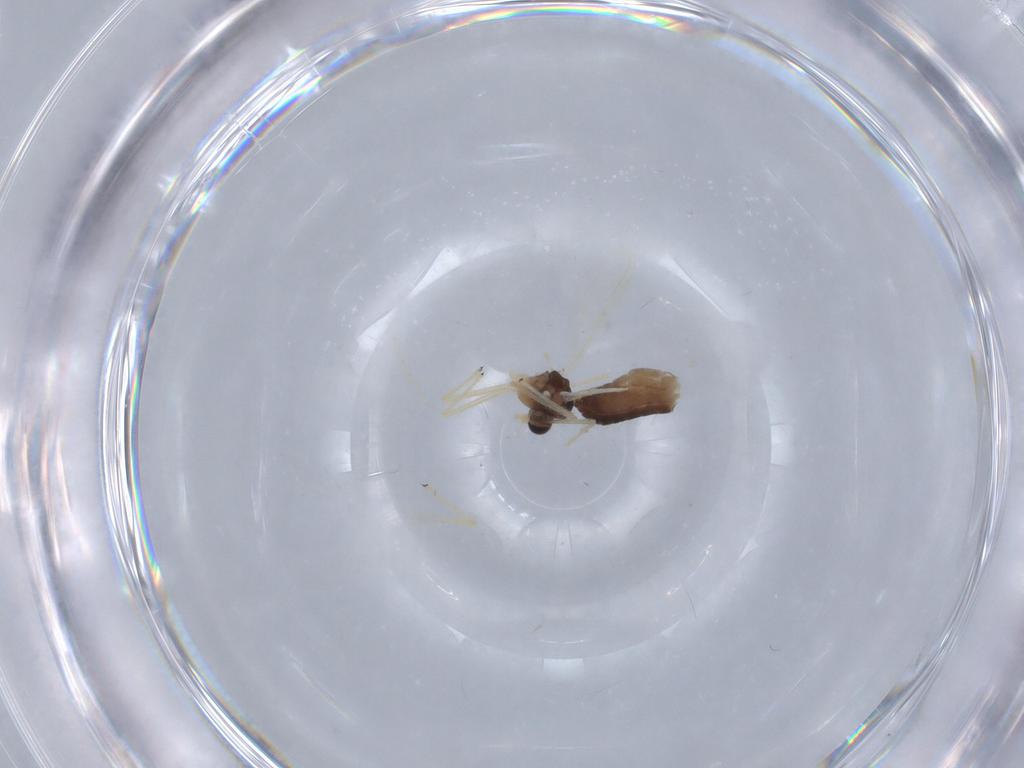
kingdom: Animalia
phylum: Arthropoda
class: Insecta
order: Diptera
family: Chironomidae
